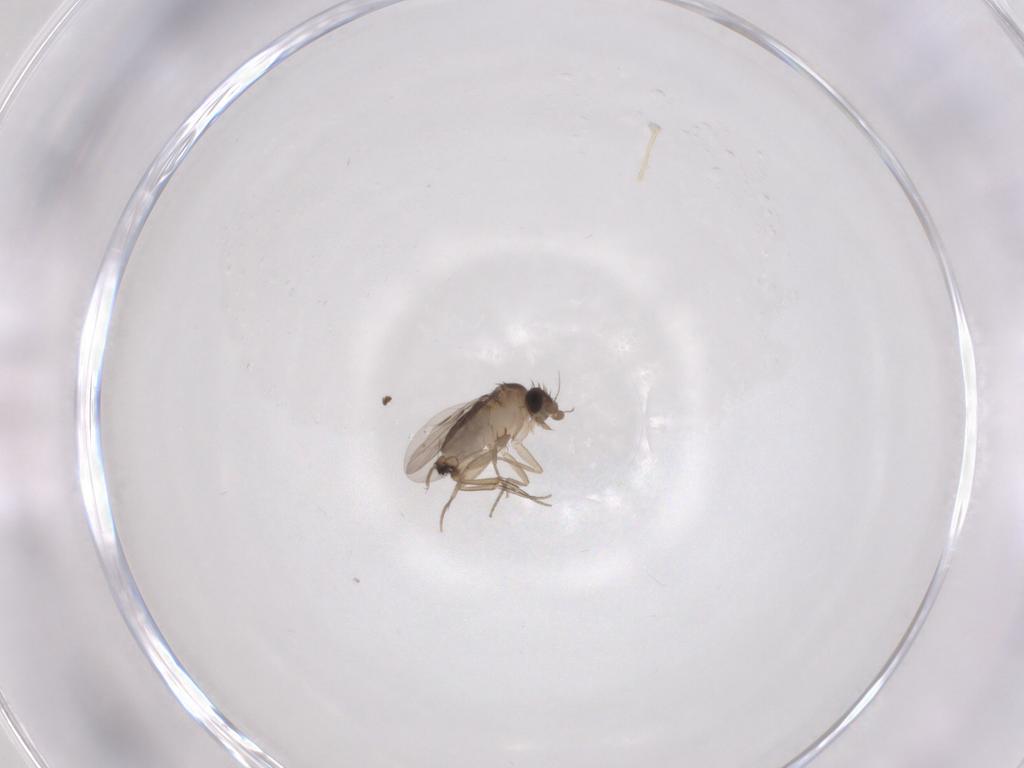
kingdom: Animalia
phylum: Arthropoda
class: Insecta
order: Diptera
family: Phoridae
